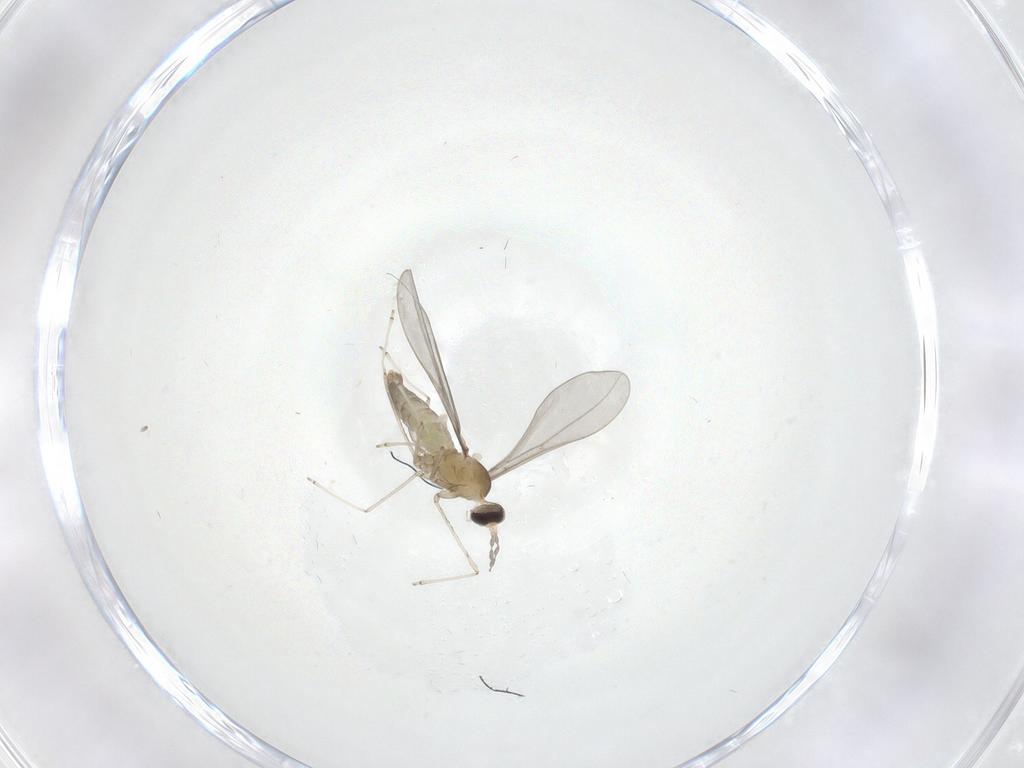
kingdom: Animalia
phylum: Arthropoda
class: Insecta
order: Diptera
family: Cecidomyiidae
